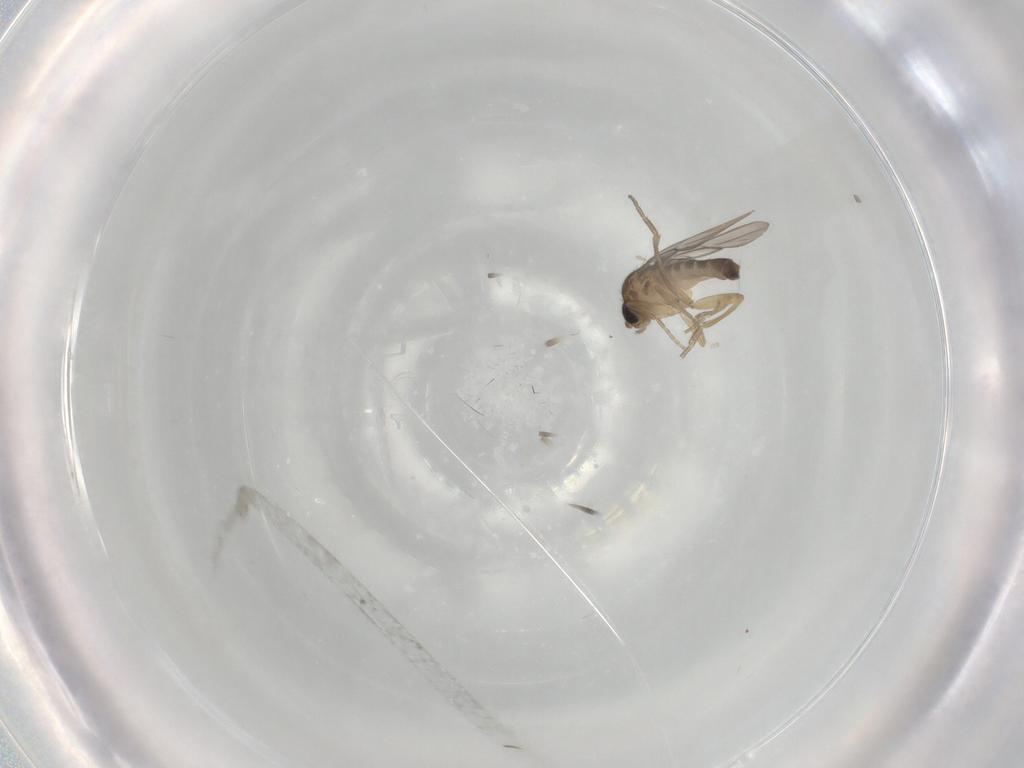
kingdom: Animalia
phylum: Arthropoda
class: Insecta
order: Diptera
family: Phoridae
